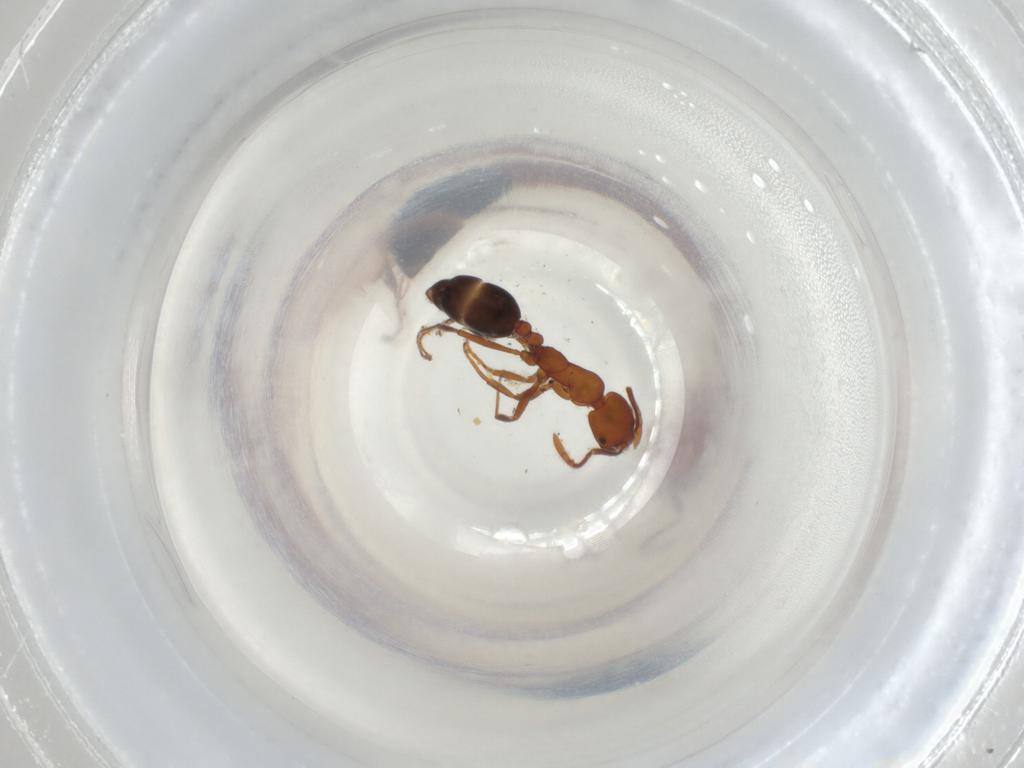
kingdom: Animalia
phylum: Arthropoda
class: Insecta
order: Hymenoptera
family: Formicidae
